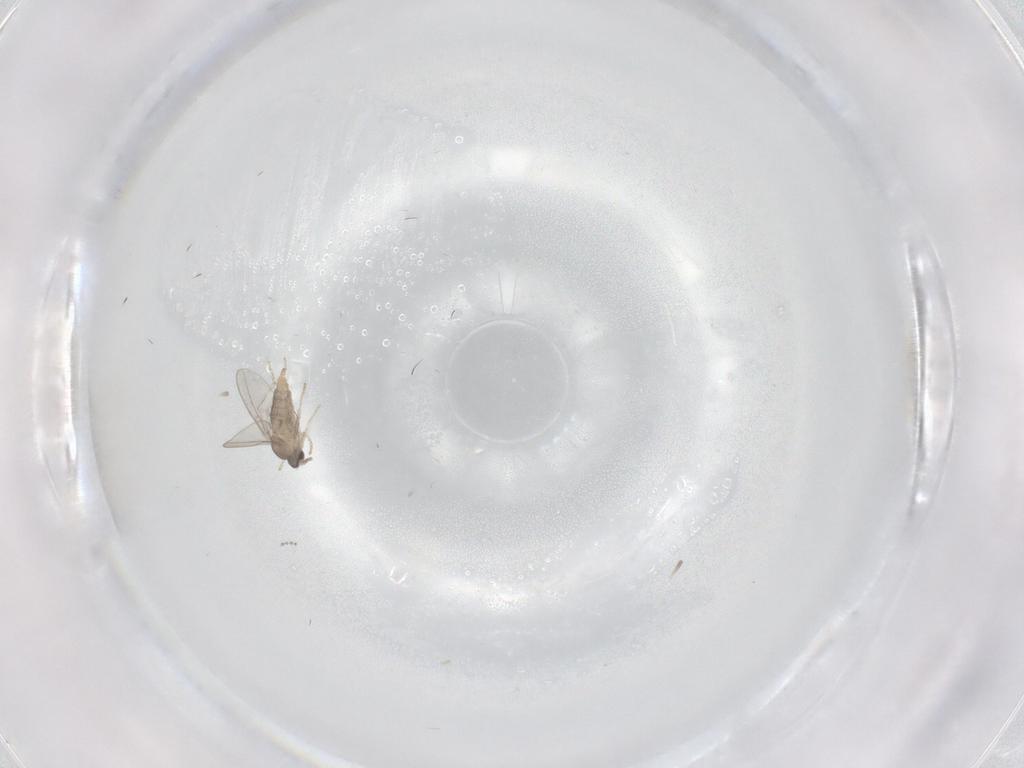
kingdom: Animalia
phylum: Arthropoda
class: Insecta
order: Diptera
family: Cecidomyiidae
